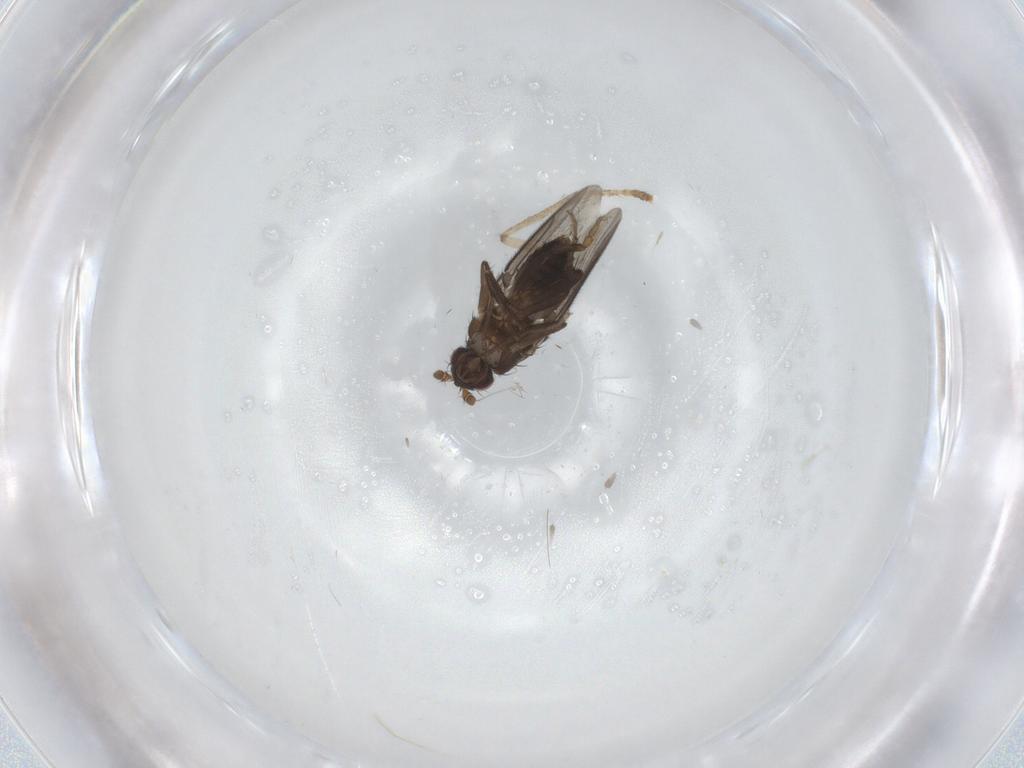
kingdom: Animalia
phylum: Arthropoda
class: Insecta
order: Diptera
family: Sphaeroceridae
